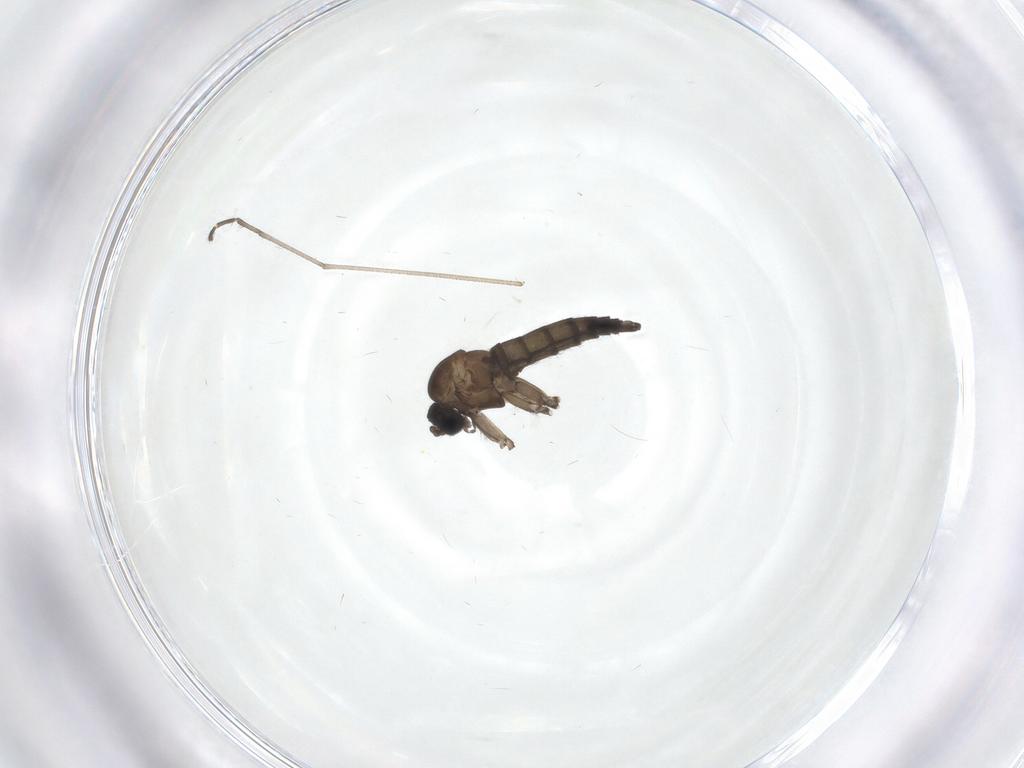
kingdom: Animalia
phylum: Arthropoda
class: Insecta
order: Diptera
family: Sciaridae
